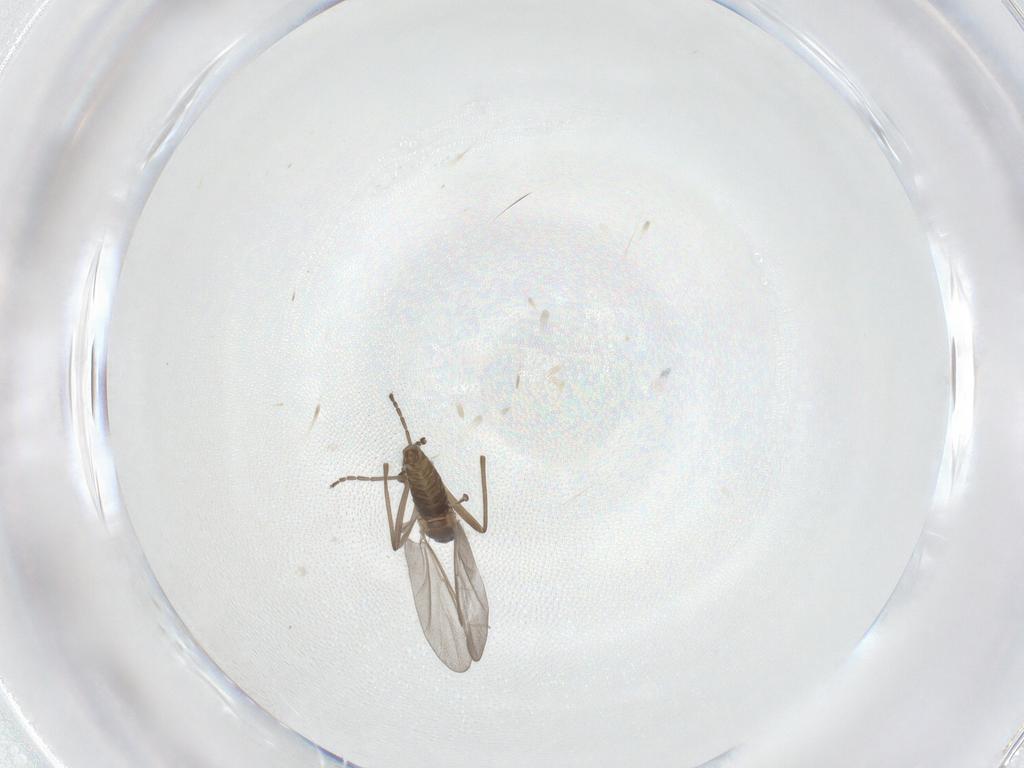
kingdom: Animalia
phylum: Arthropoda
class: Insecta
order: Diptera
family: Cecidomyiidae
